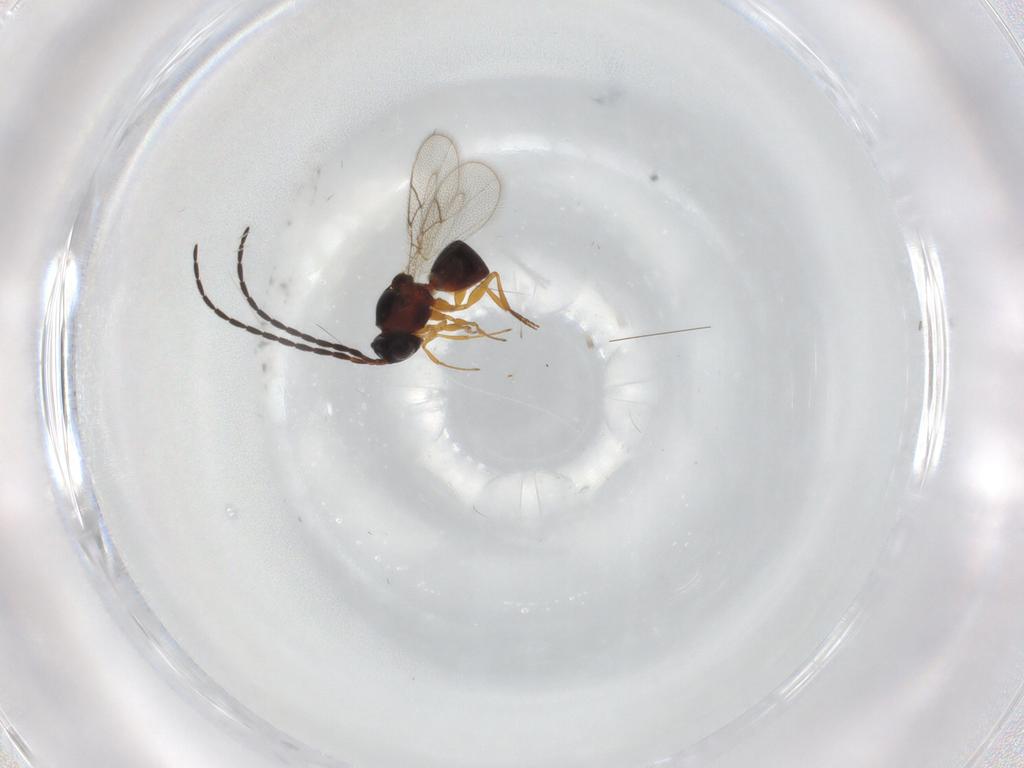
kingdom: Animalia
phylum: Arthropoda
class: Insecta
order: Hymenoptera
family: Figitidae
